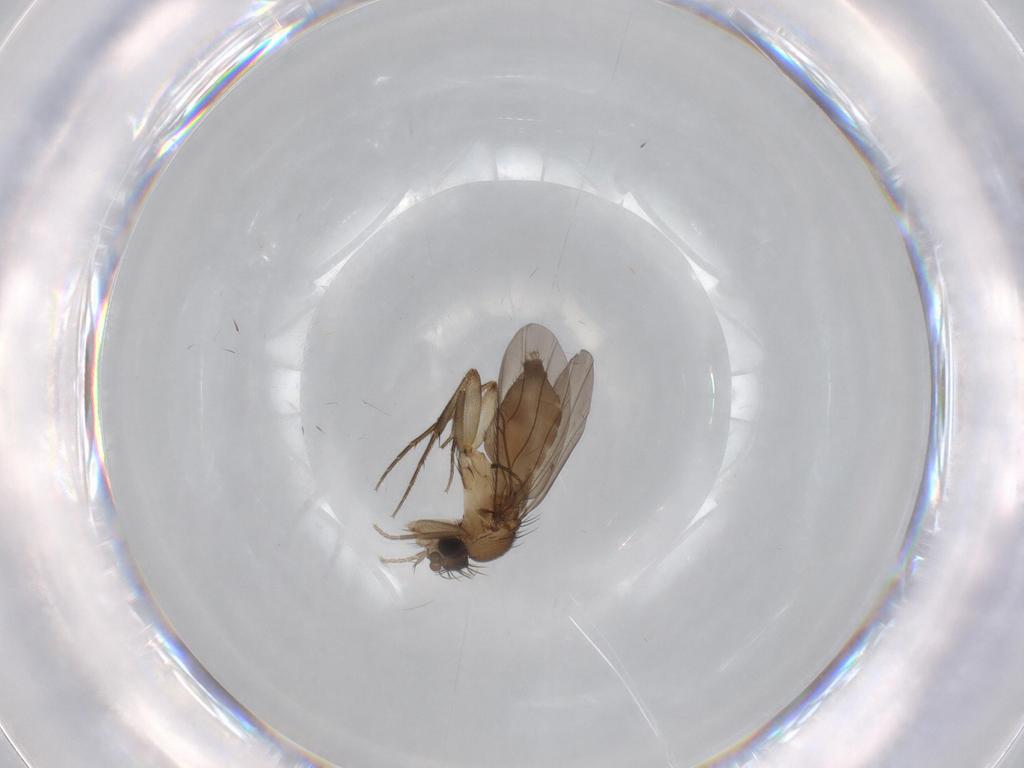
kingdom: Animalia
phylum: Arthropoda
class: Insecta
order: Diptera
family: Phoridae
